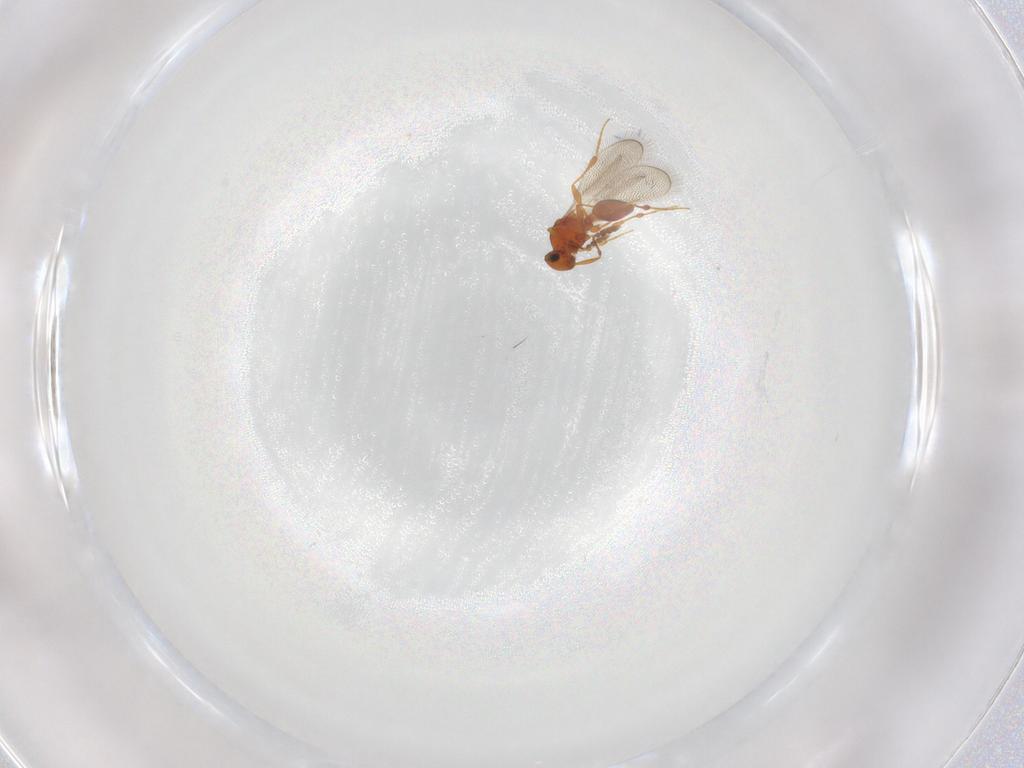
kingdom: Animalia
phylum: Arthropoda
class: Insecta
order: Hymenoptera
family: Platygastridae
